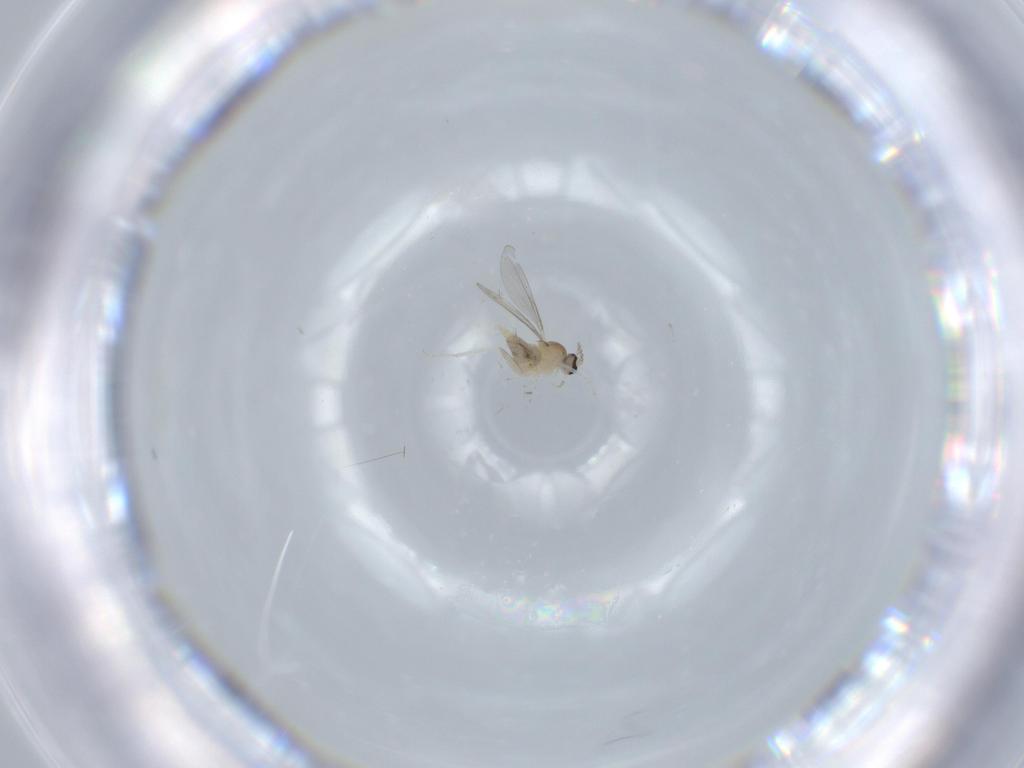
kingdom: Animalia
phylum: Arthropoda
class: Insecta
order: Diptera
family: Cecidomyiidae
